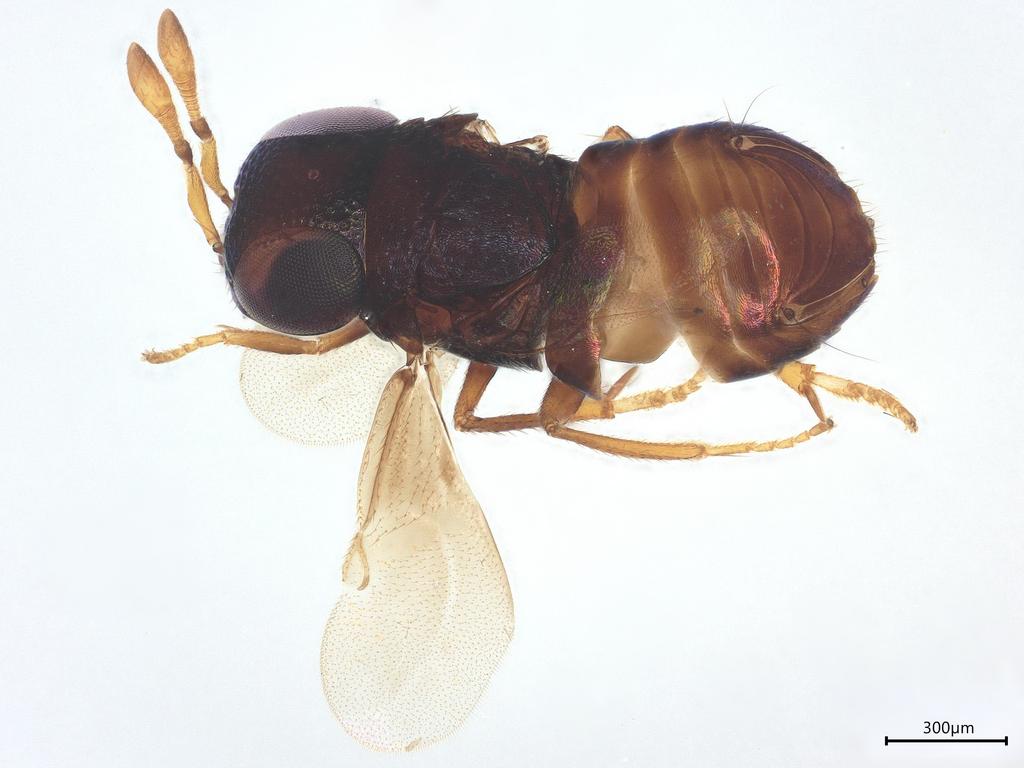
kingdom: Animalia
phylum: Arthropoda
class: Insecta
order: Hymenoptera
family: Encyrtidae
